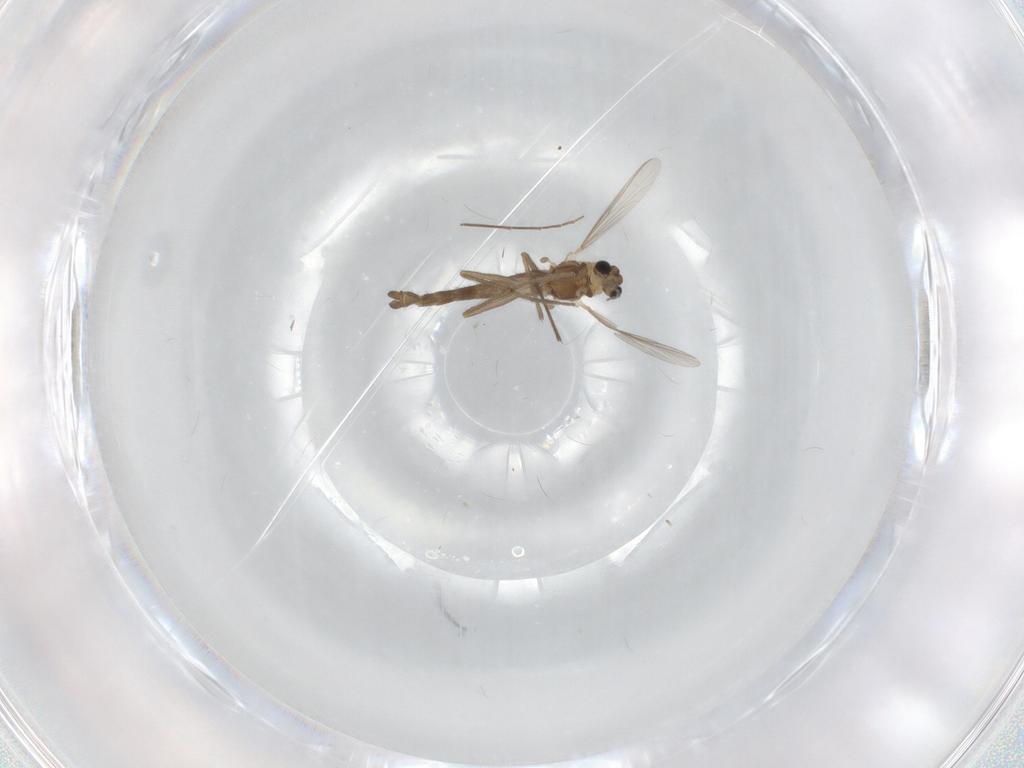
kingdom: Animalia
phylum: Arthropoda
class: Insecta
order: Diptera
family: Chironomidae
